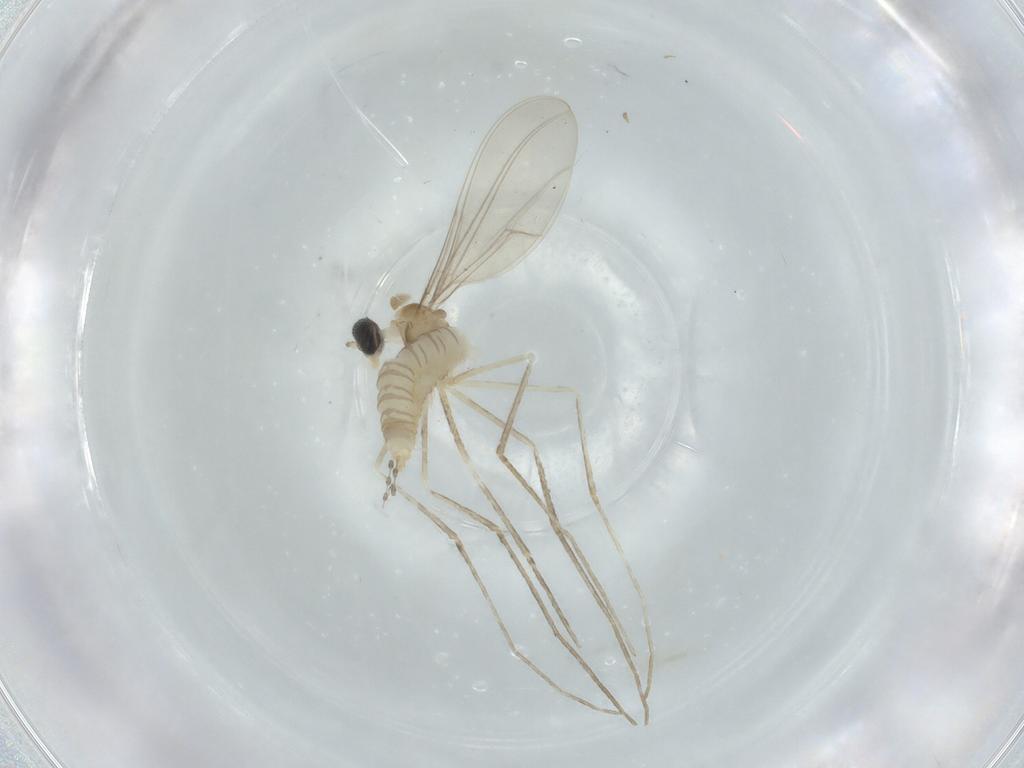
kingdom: Animalia
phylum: Arthropoda
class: Insecta
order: Diptera
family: Cecidomyiidae
